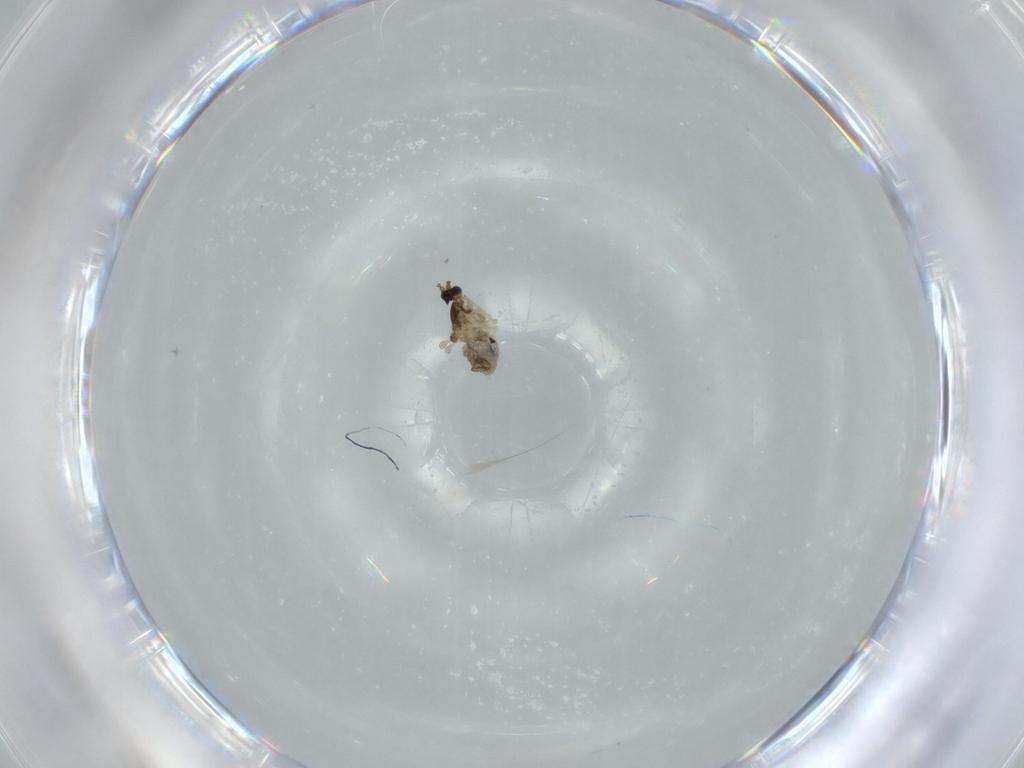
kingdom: Animalia
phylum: Arthropoda
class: Insecta
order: Diptera
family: Cecidomyiidae
